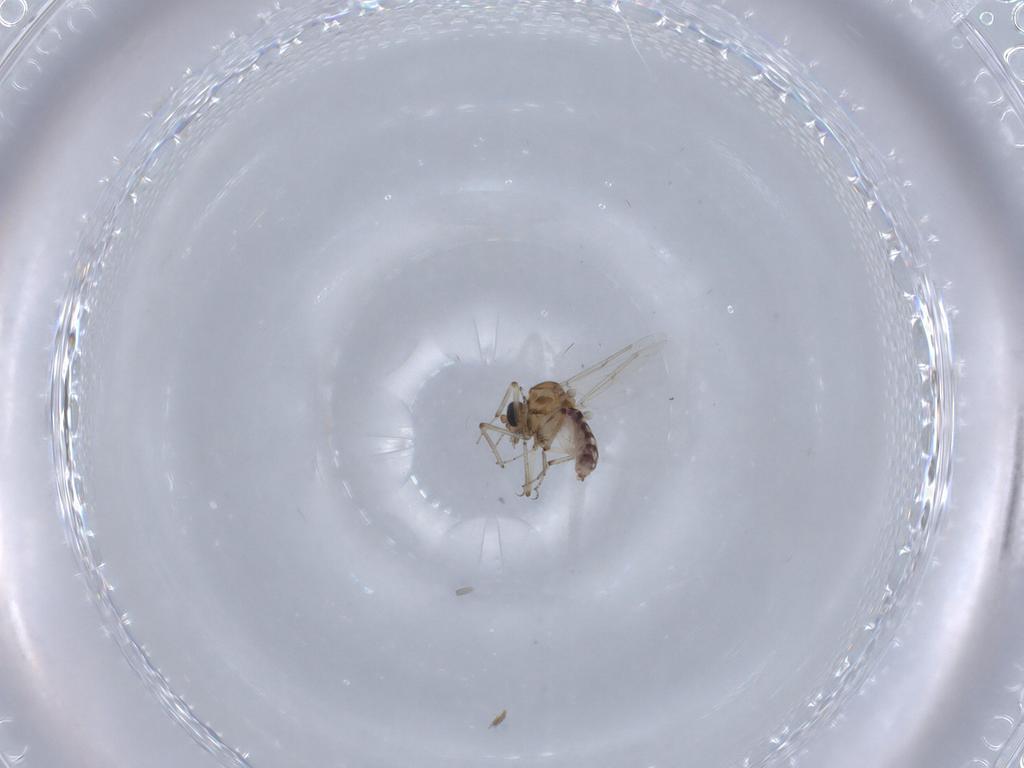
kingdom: Animalia
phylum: Arthropoda
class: Insecta
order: Diptera
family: Ceratopogonidae
